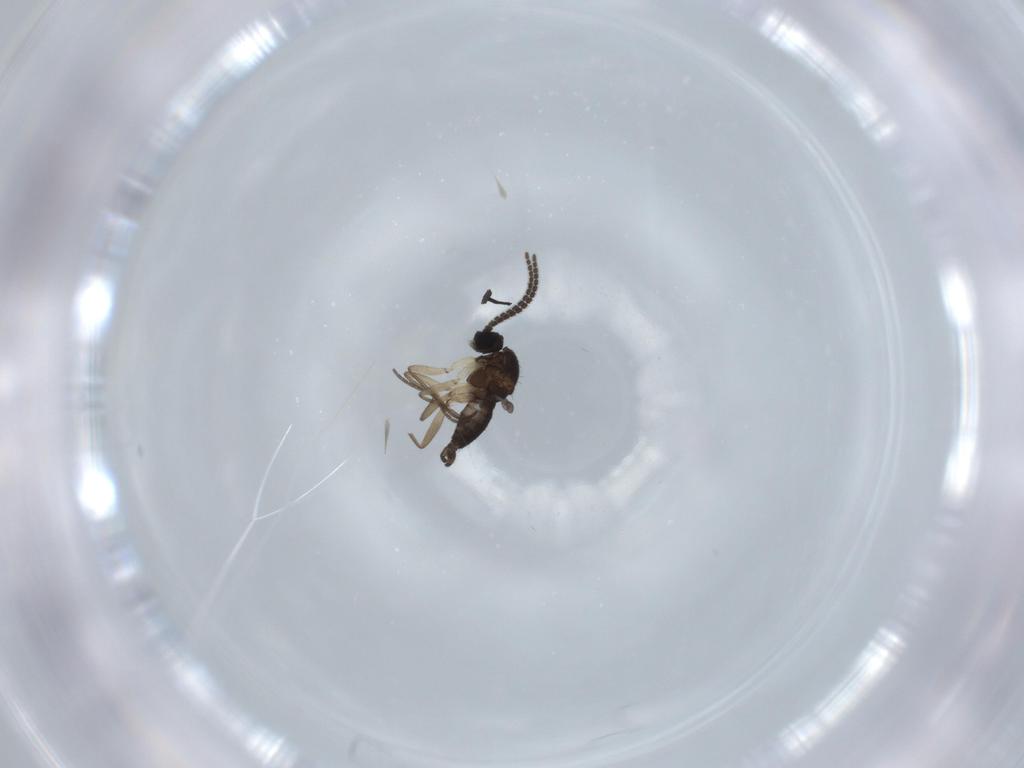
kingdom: Animalia
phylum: Arthropoda
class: Insecta
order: Diptera
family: Sciaridae
